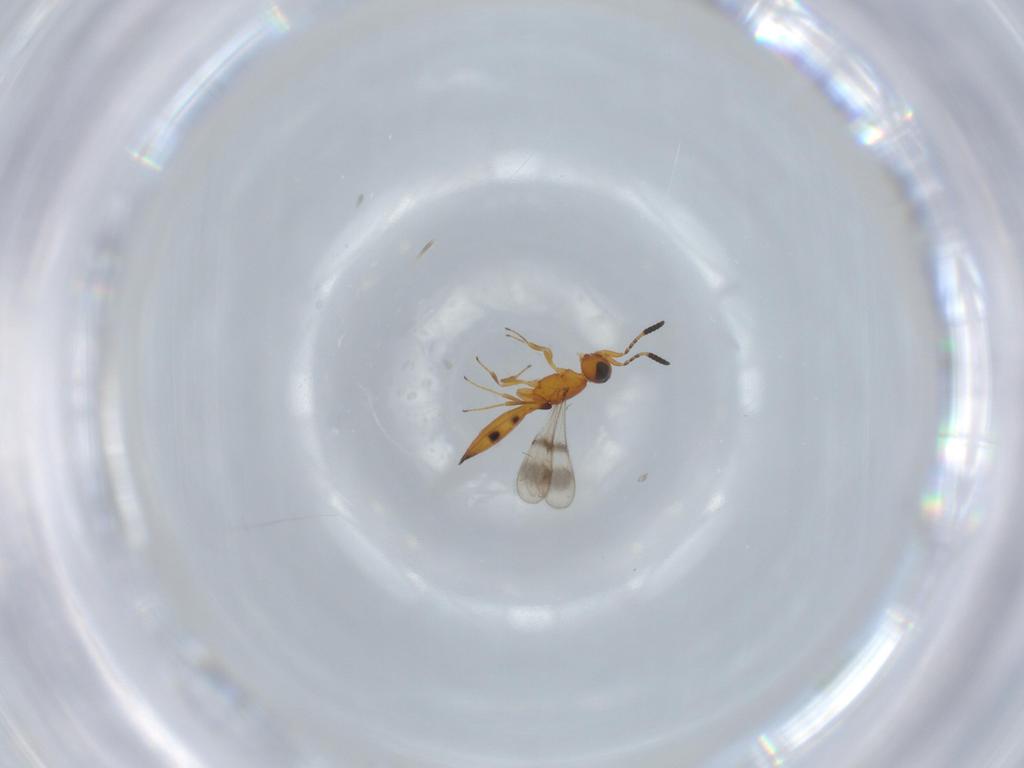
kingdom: Animalia
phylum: Arthropoda
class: Insecta
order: Hymenoptera
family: Scelionidae
